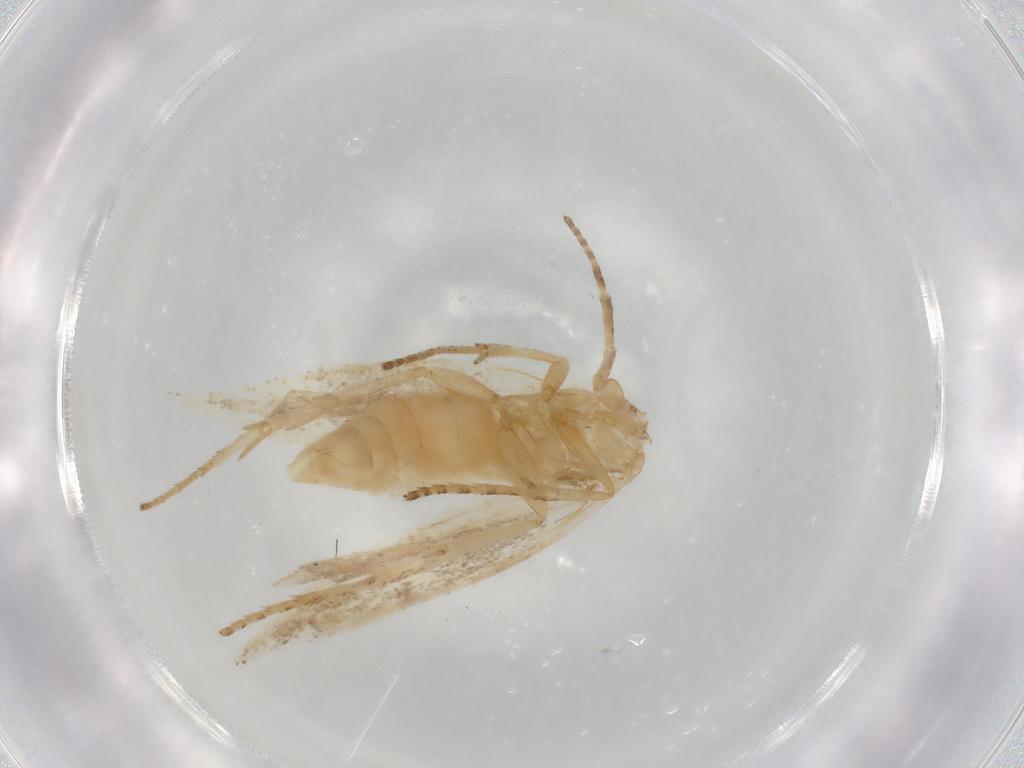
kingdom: Animalia
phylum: Arthropoda
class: Insecta
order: Lepidoptera
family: Gelechiidae
